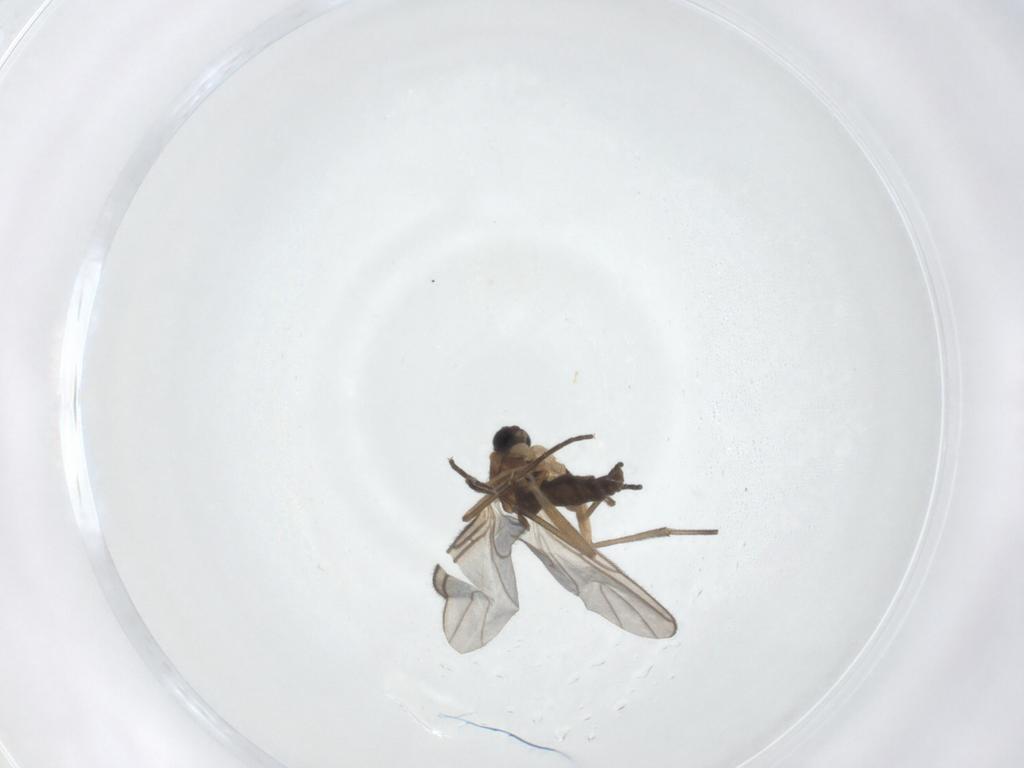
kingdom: Animalia
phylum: Arthropoda
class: Insecta
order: Diptera
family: Sciaridae
